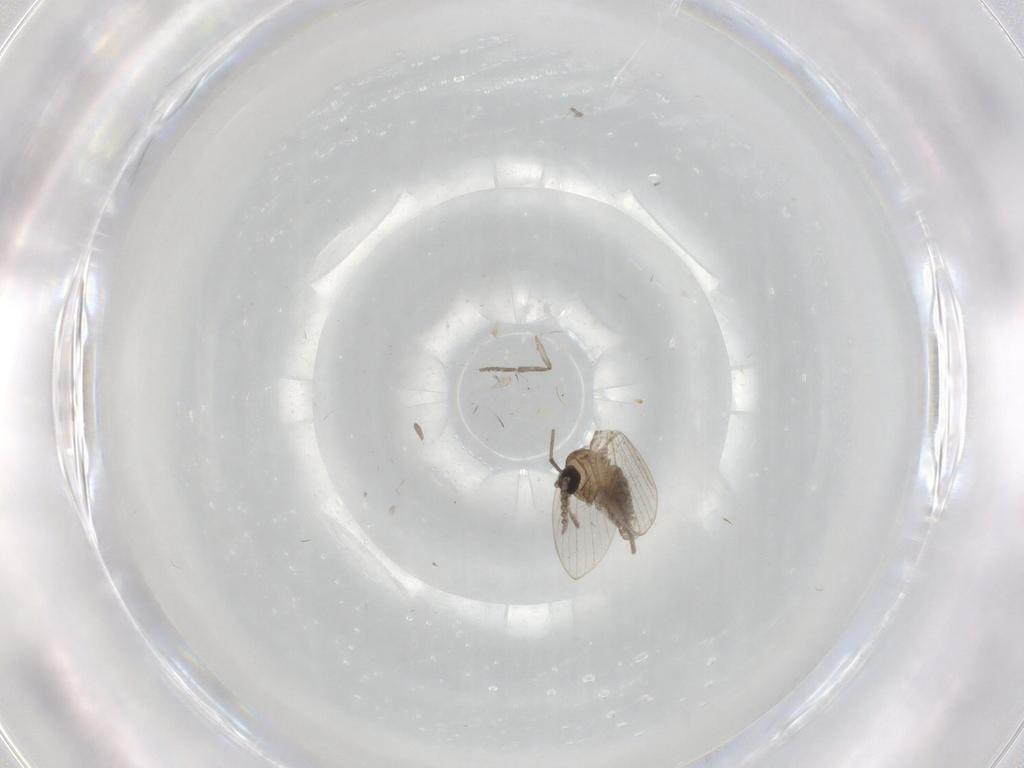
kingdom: Animalia
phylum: Arthropoda
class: Insecta
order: Diptera
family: Psychodidae
